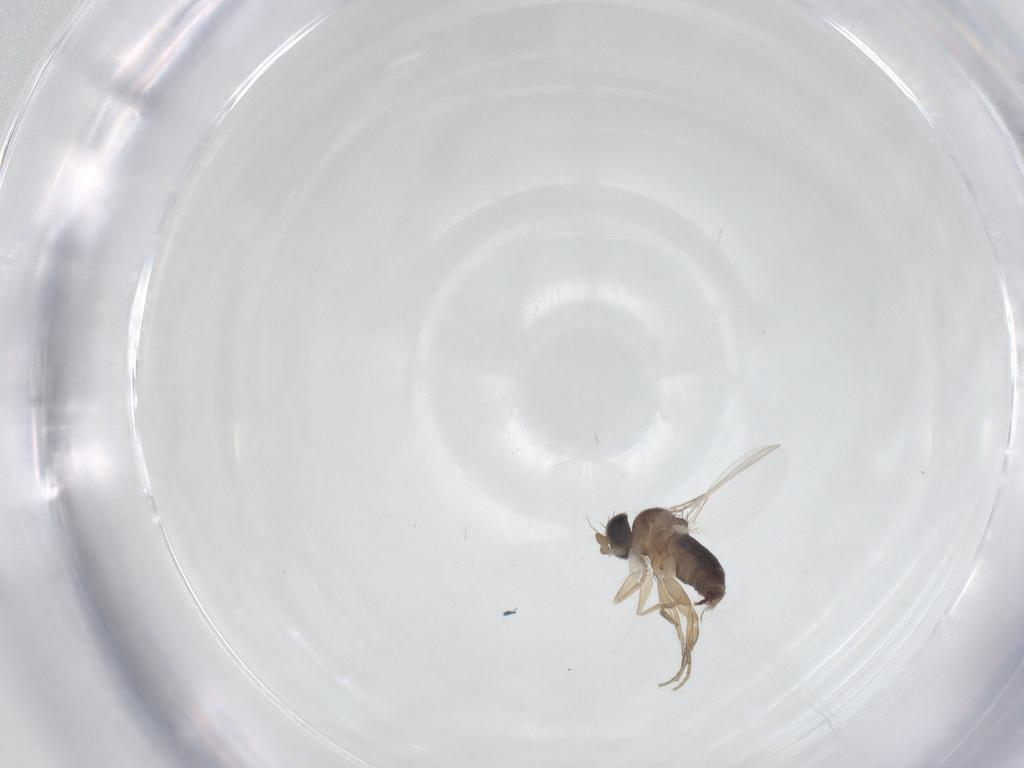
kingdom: Animalia
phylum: Arthropoda
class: Insecta
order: Diptera
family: Phoridae
